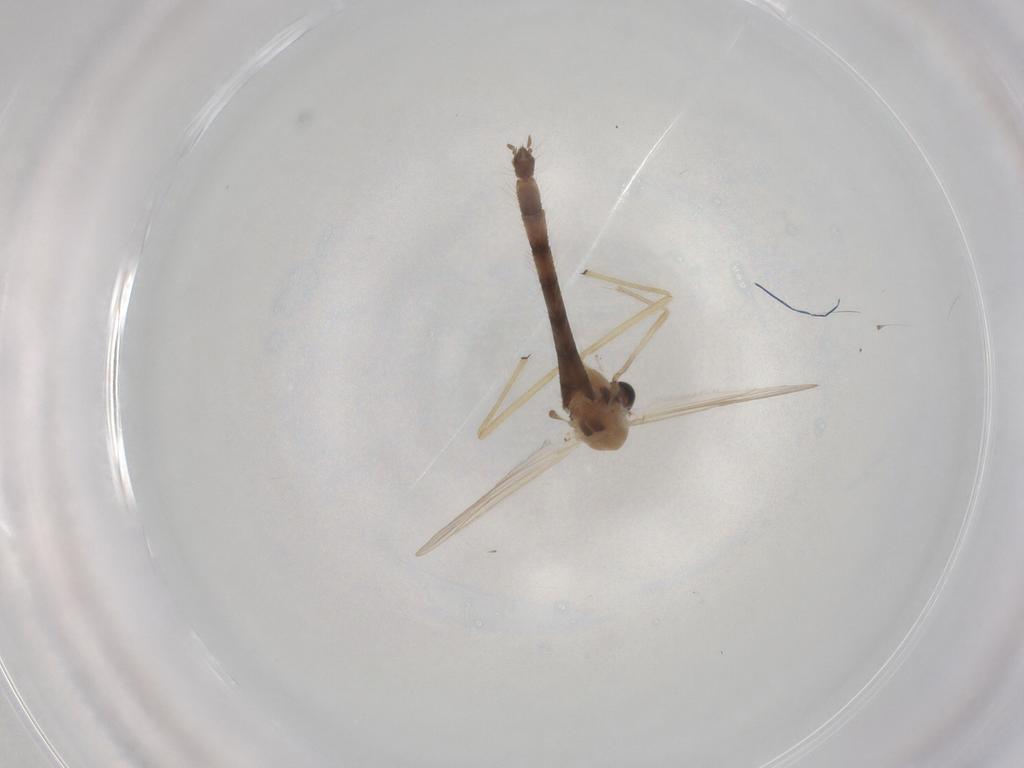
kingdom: Animalia
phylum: Arthropoda
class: Insecta
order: Diptera
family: Chironomidae
